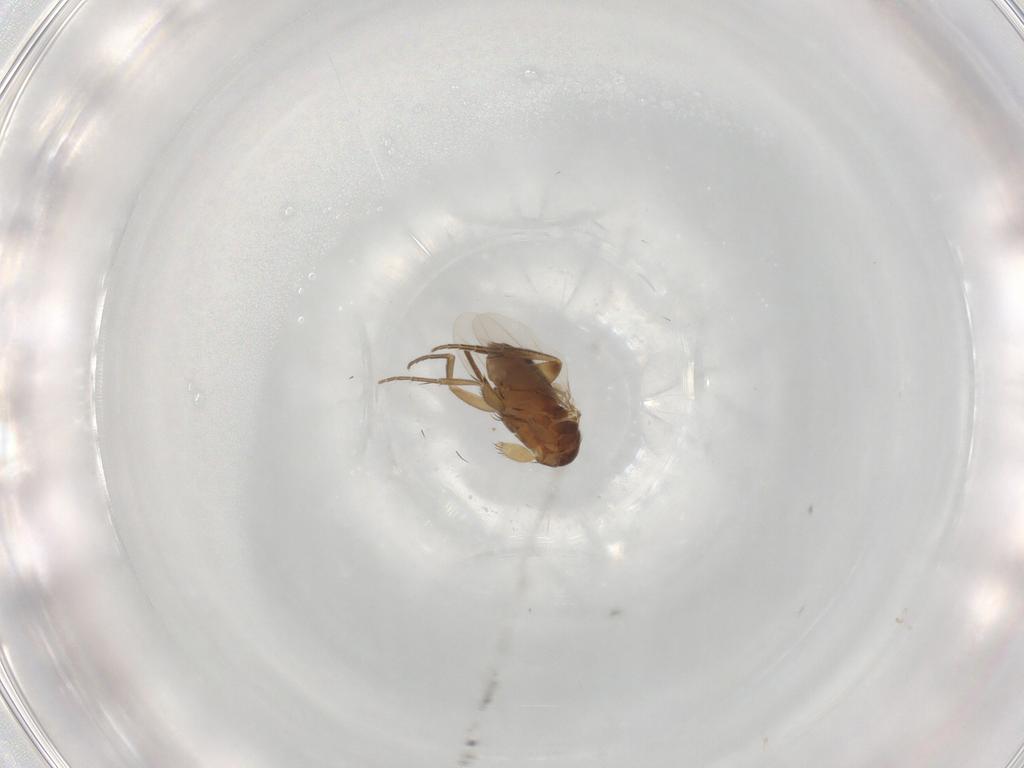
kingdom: Animalia
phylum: Arthropoda
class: Insecta
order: Diptera
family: Phoridae
